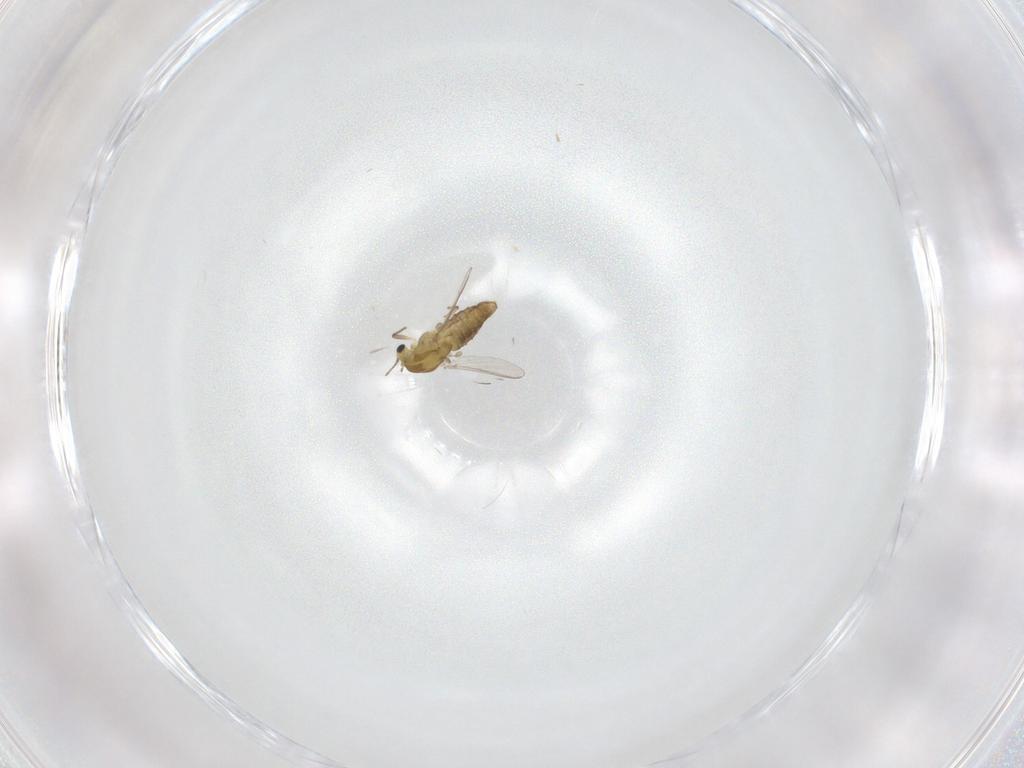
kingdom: Animalia
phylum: Arthropoda
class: Insecta
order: Diptera
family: Chironomidae
